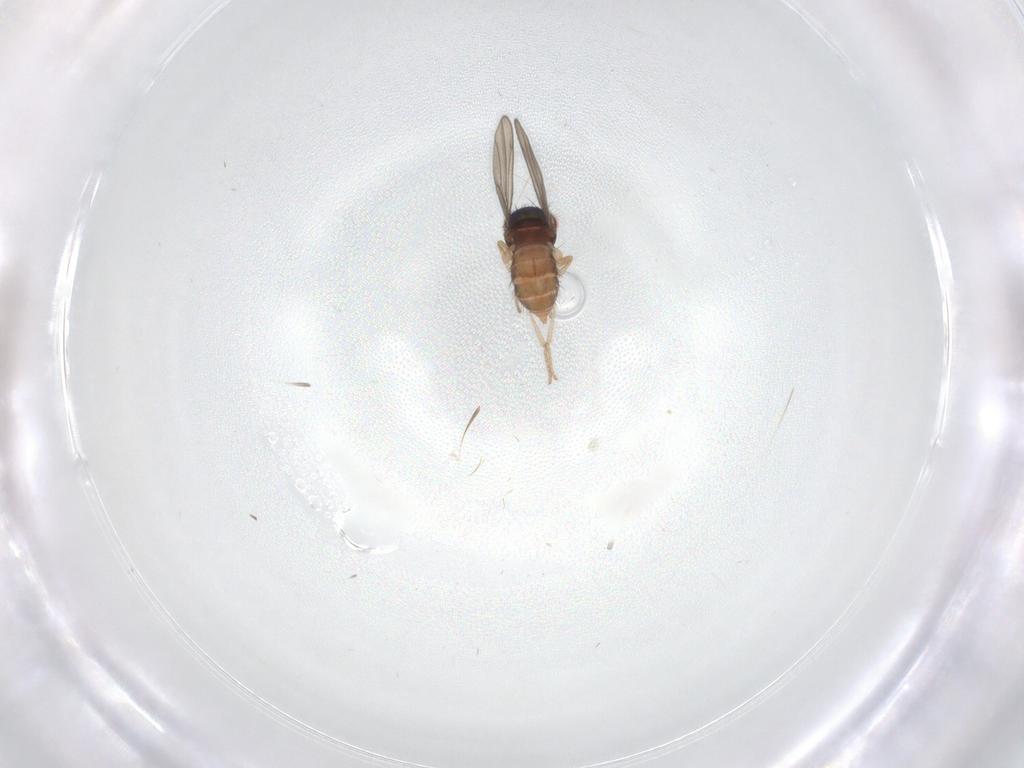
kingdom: Animalia
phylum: Arthropoda
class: Insecta
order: Diptera
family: Drosophilidae
